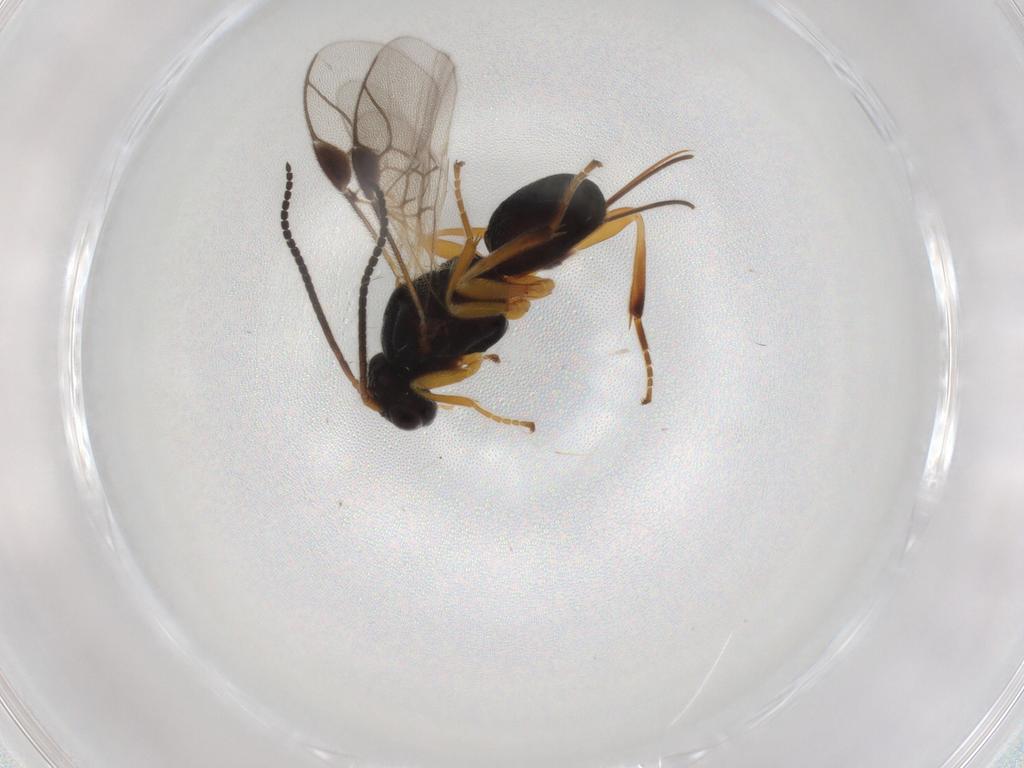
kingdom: Animalia
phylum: Arthropoda
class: Insecta
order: Hymenoptera
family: Braconidae
